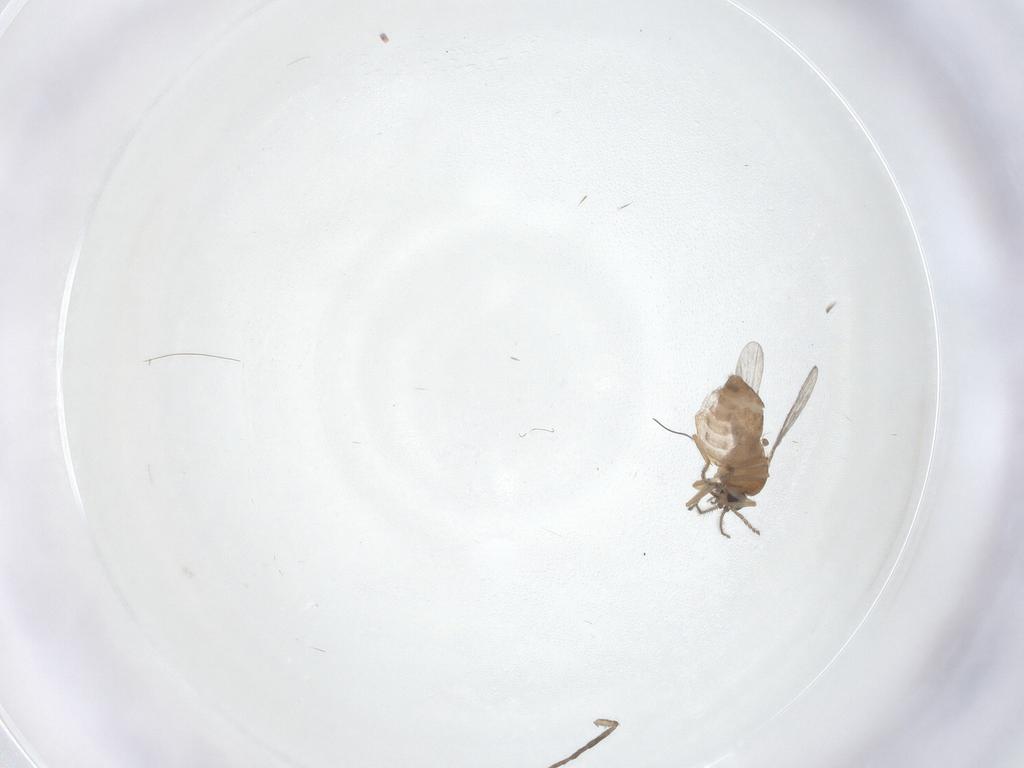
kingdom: Animalia
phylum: Arthropoda
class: Insecta
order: Diptera
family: Ceratopogonidae
